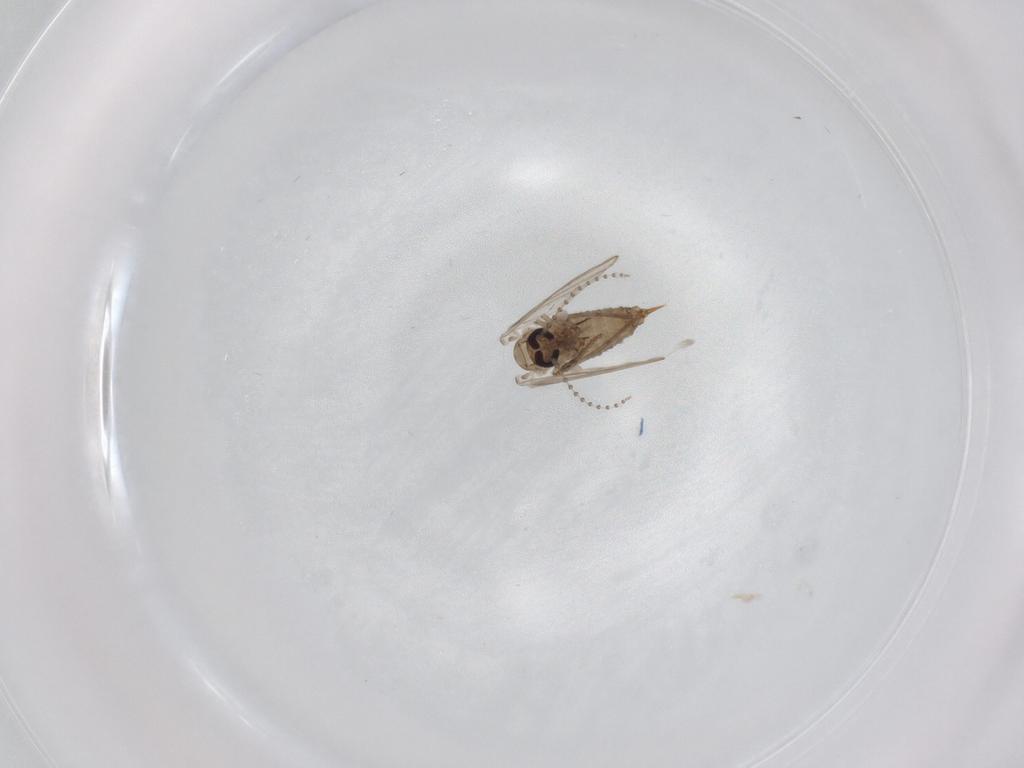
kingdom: Animalia
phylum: Arthropoda
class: Insecta
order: Diptera
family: Psychodidae
